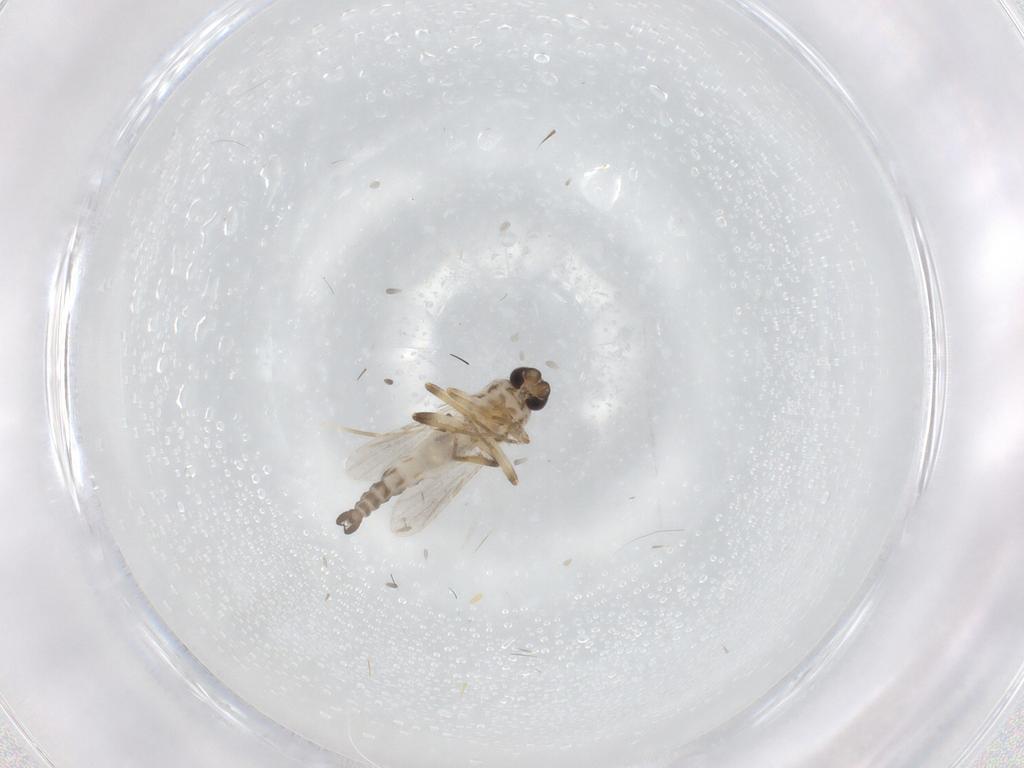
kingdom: Animalia
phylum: Arthropoda
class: Insecta
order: Diptera
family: Ceratopogonidae
